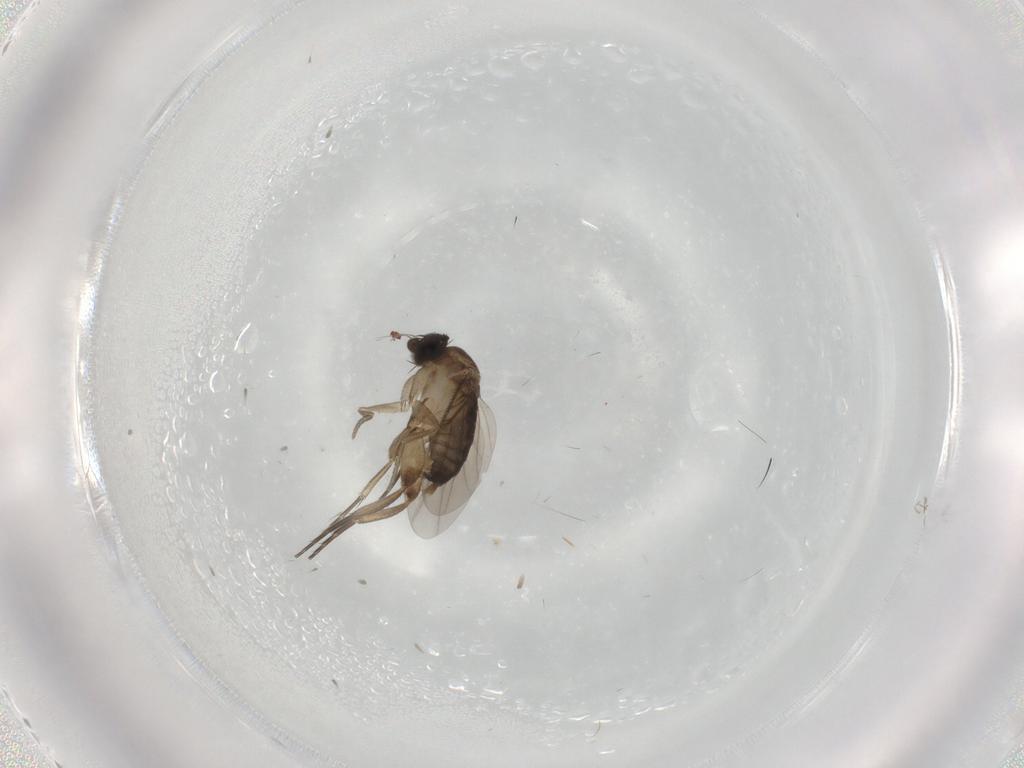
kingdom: Animalia
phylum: Arthropoda
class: Insecta
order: Diptera
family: Phoridae
